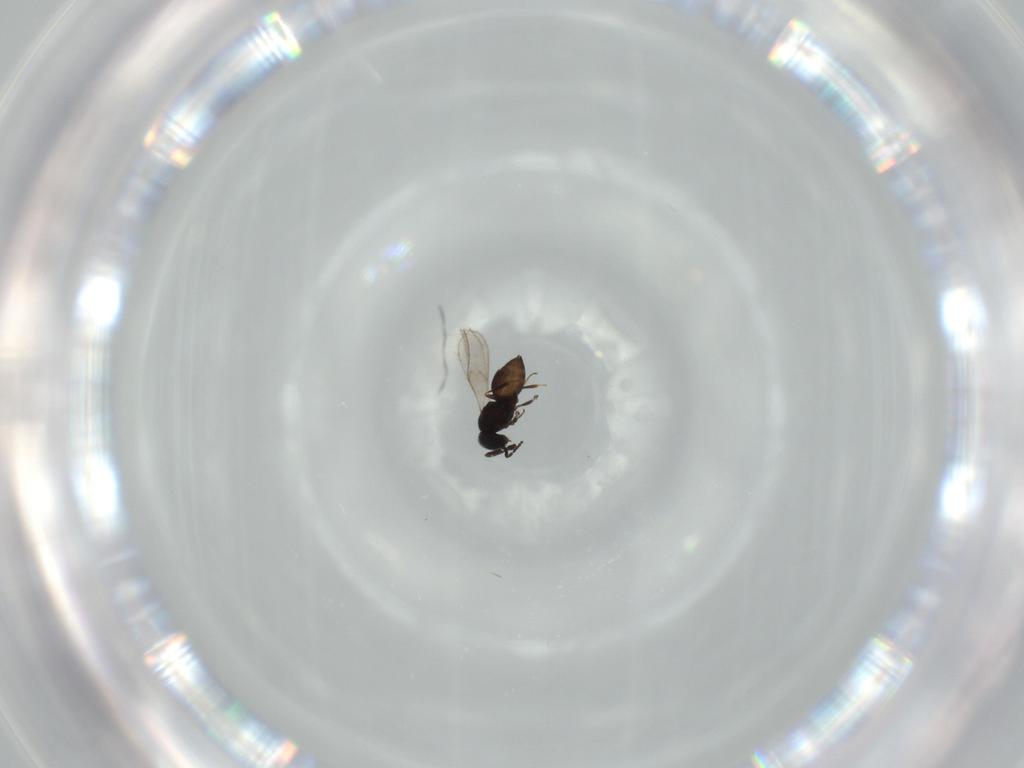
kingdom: Animalia
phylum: Arthropoda
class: Insecta
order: Hymenoptera
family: Scelionidae
